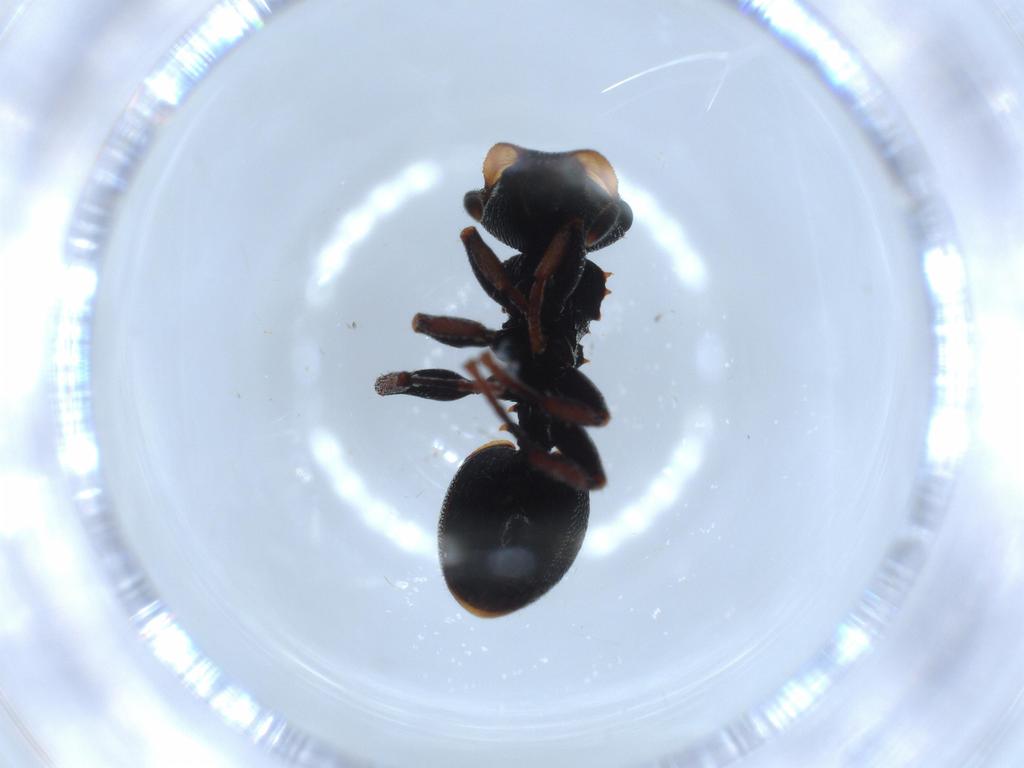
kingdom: Animalia
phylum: Arthropoda
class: Insecta
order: Hymenoptera
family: Formicidae
